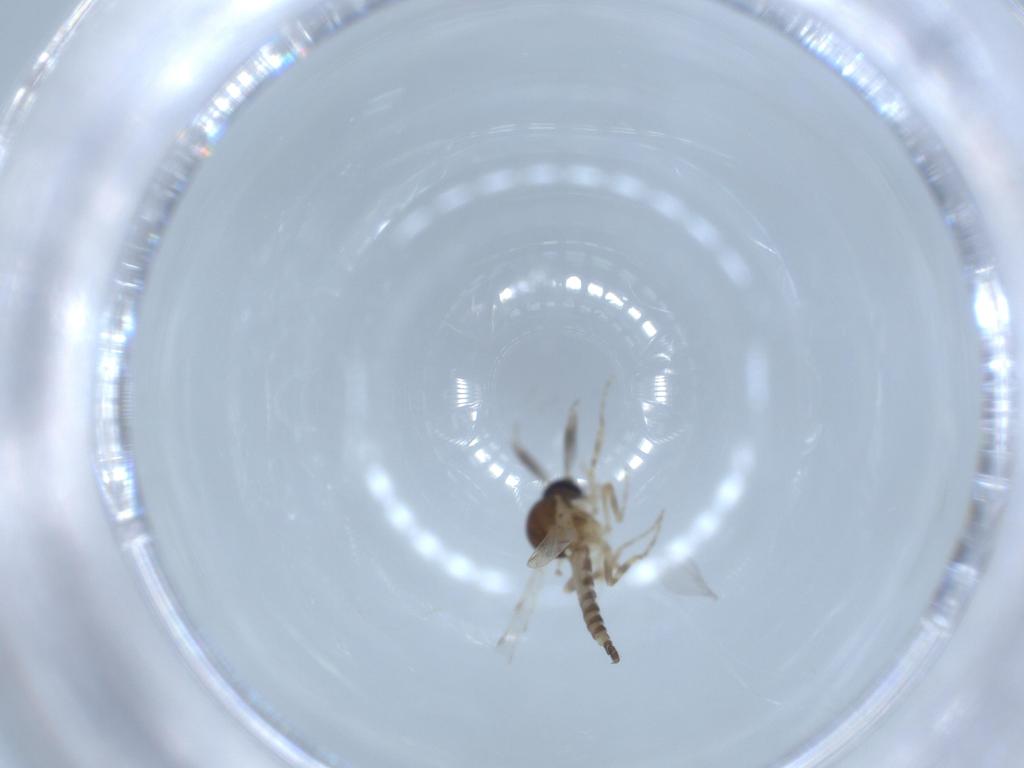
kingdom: Animalia
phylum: Arthropoda
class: Insecta
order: Diptera
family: Ceratopogonidae
